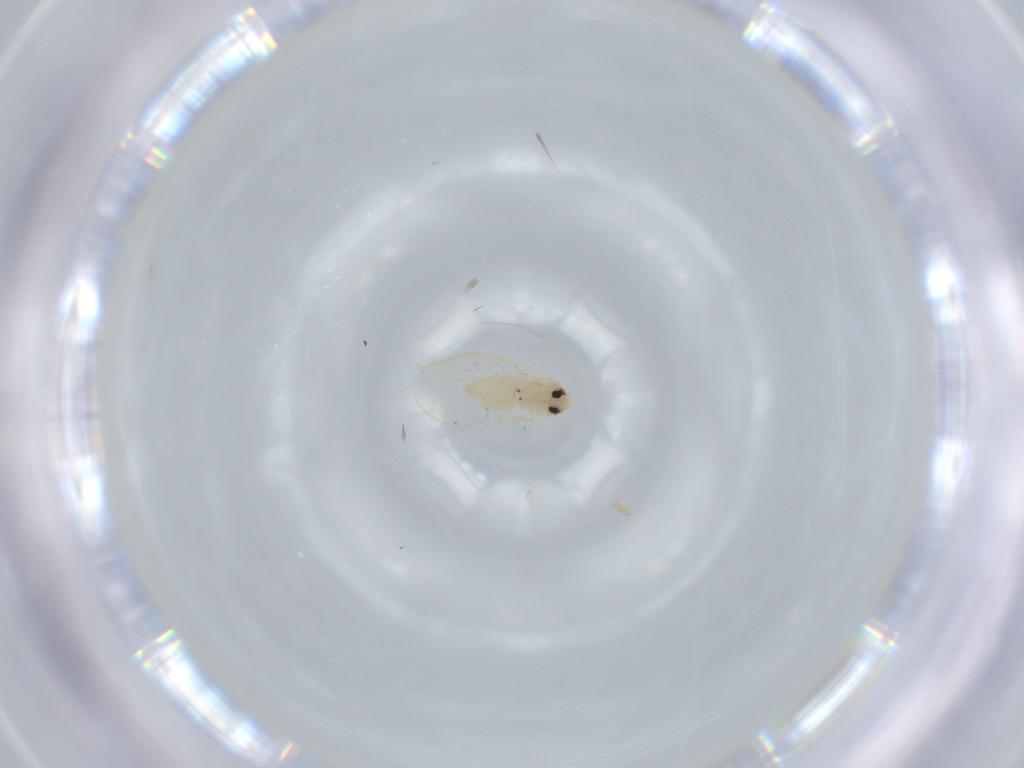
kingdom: Animalia
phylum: Arthropoda
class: Insecta
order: Hemiptera
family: Aleyrodidae
